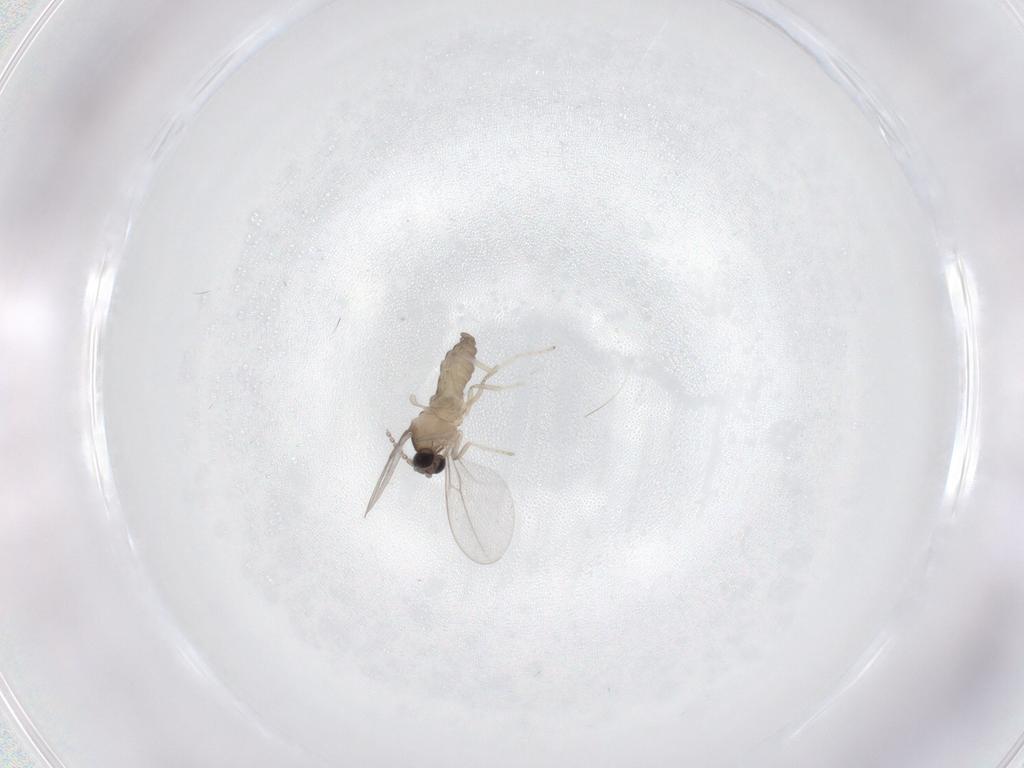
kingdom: Animalia
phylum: Arthropoda
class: Insecta
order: Diptera
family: Chironomidae
